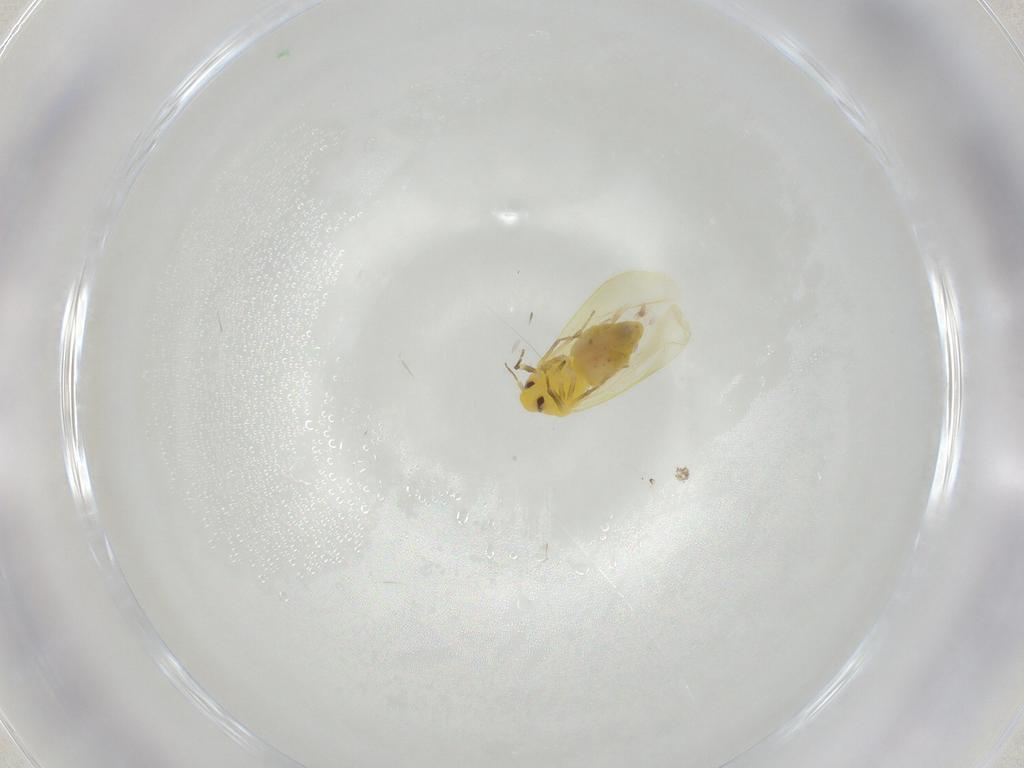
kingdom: Animalia
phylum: Arthropoda
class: Insecta
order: Hemiptera
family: Aleyrodidae
